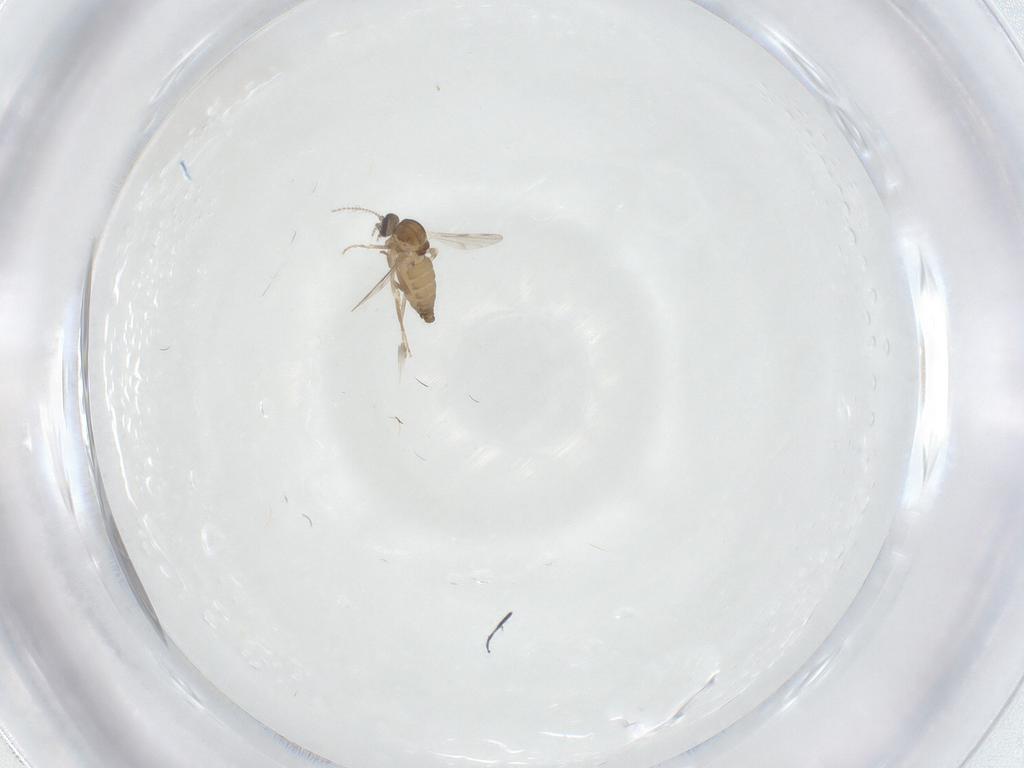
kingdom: Animalia
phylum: Arthropoda
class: Insecta
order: Diptera
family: Ceratopogonidae
